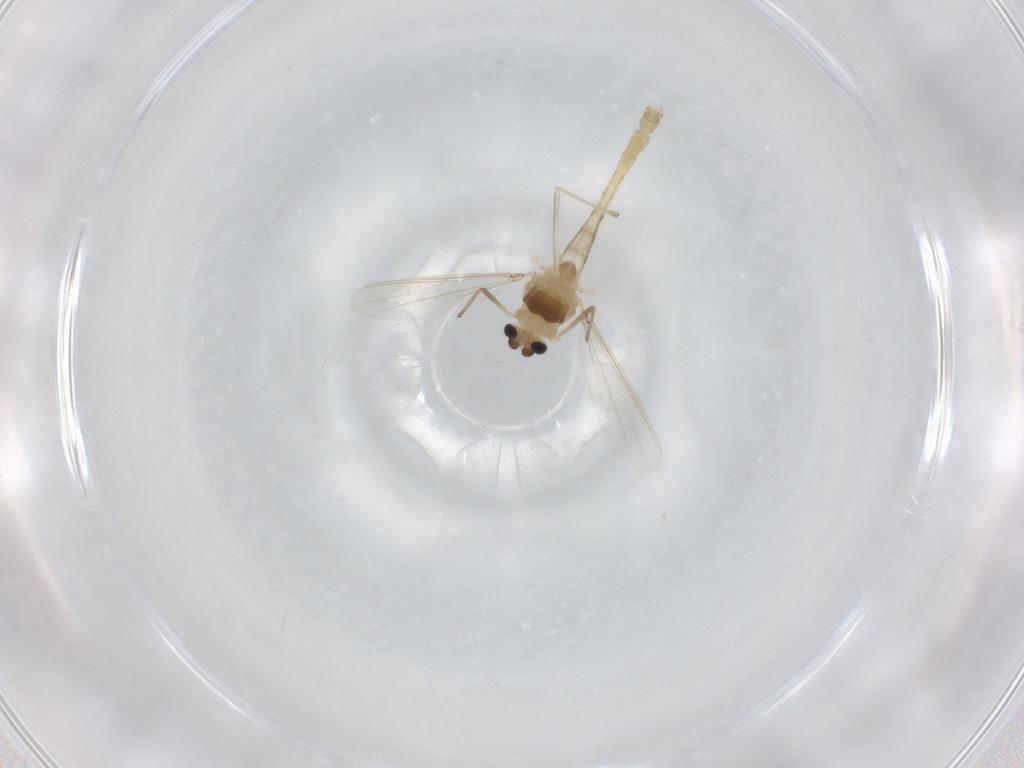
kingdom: Animalia
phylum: Arthropoda
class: Insecta
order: Diptera
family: Chironomidae
